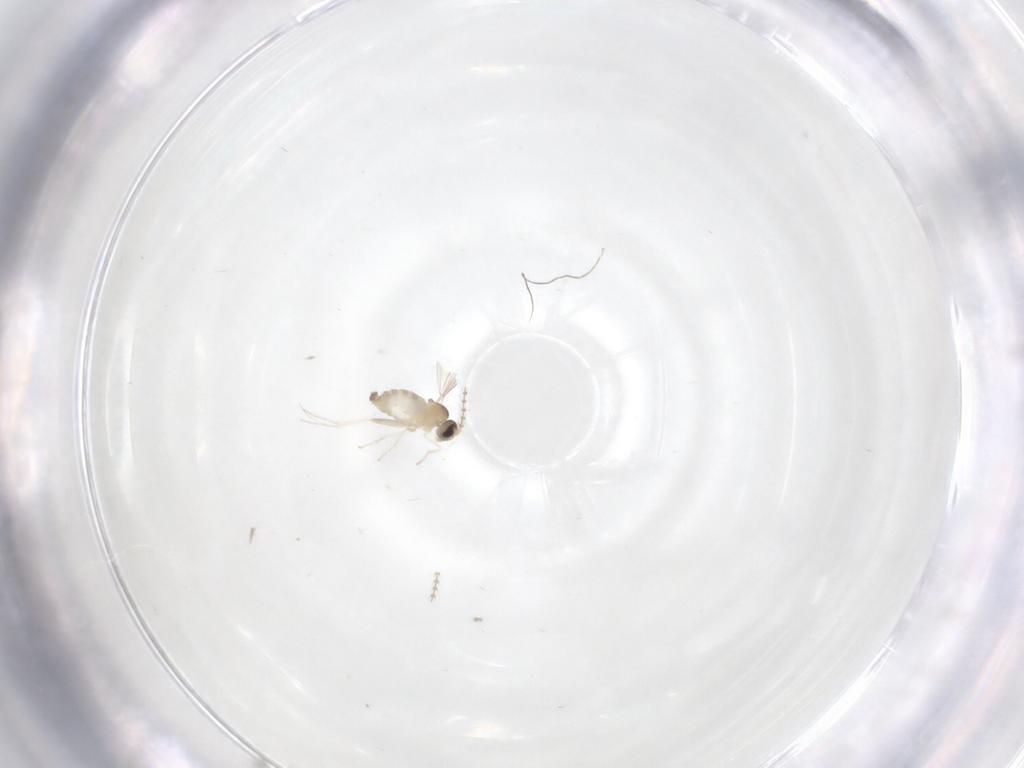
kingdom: Animalia
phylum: Arthropoda
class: Insecta
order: Diptera
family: Cecidomyiidae
